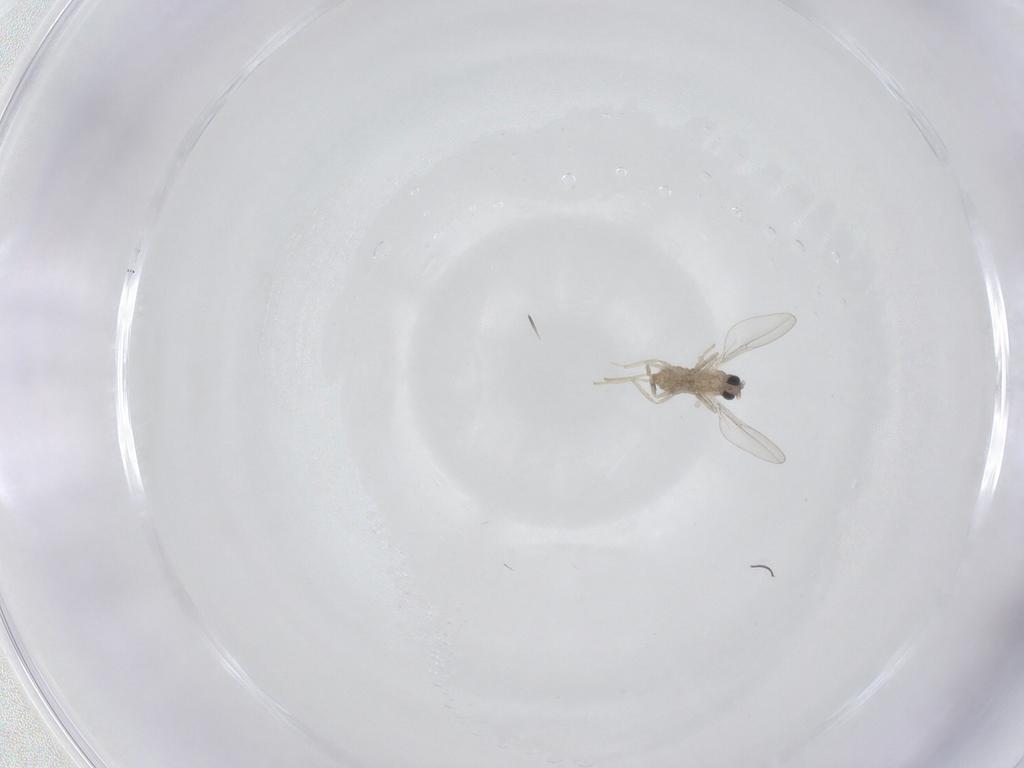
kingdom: Animalia
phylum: Arthropoda
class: Insecta
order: Diptera
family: Cecidomyiidae
